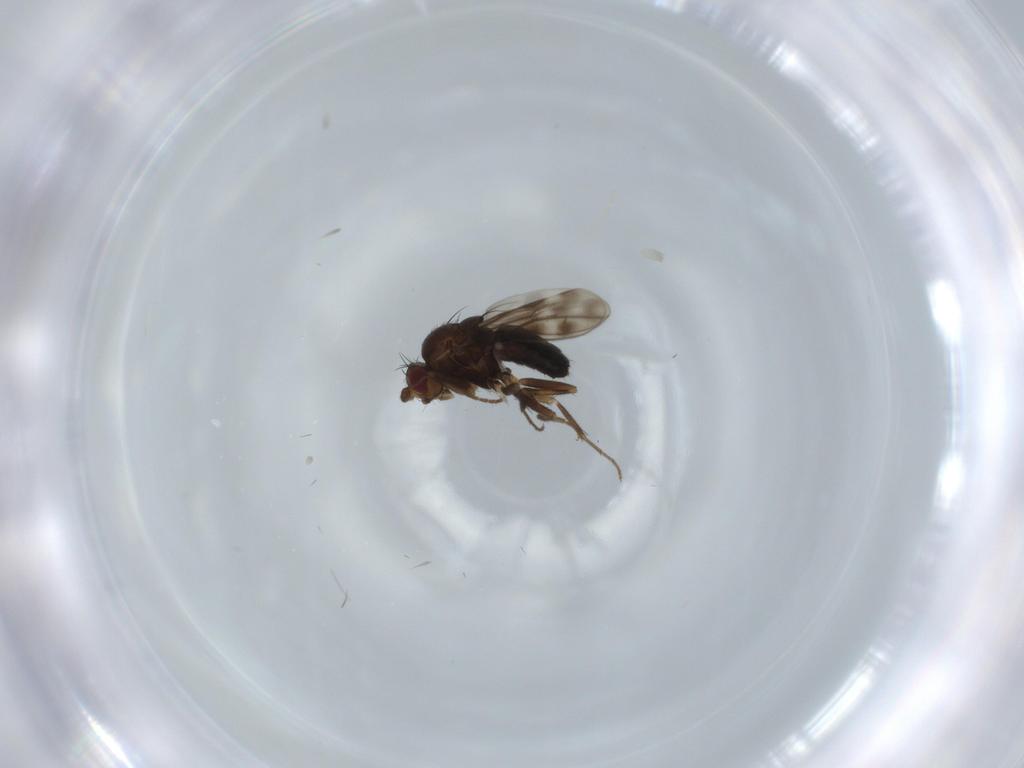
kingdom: Animalia
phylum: Arthropoda
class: Insecta
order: Diptera
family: Sphaeroceridae
